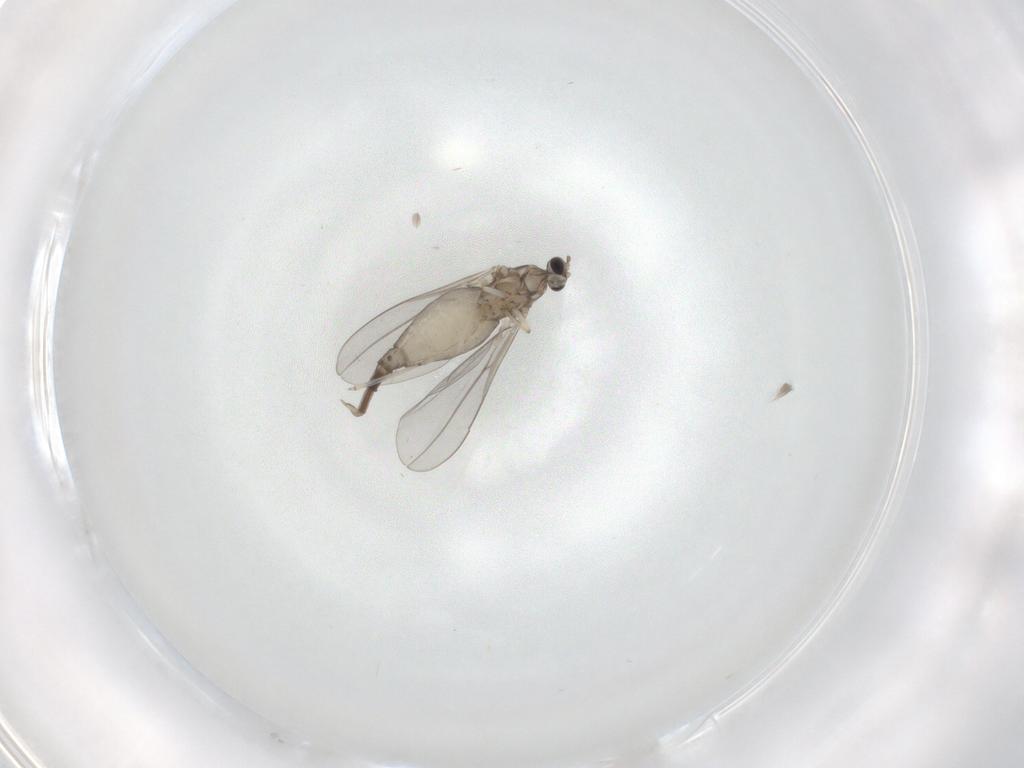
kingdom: Animalia
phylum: Arthropoda
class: Insecta
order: Diptera
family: Cecidomyiidae
